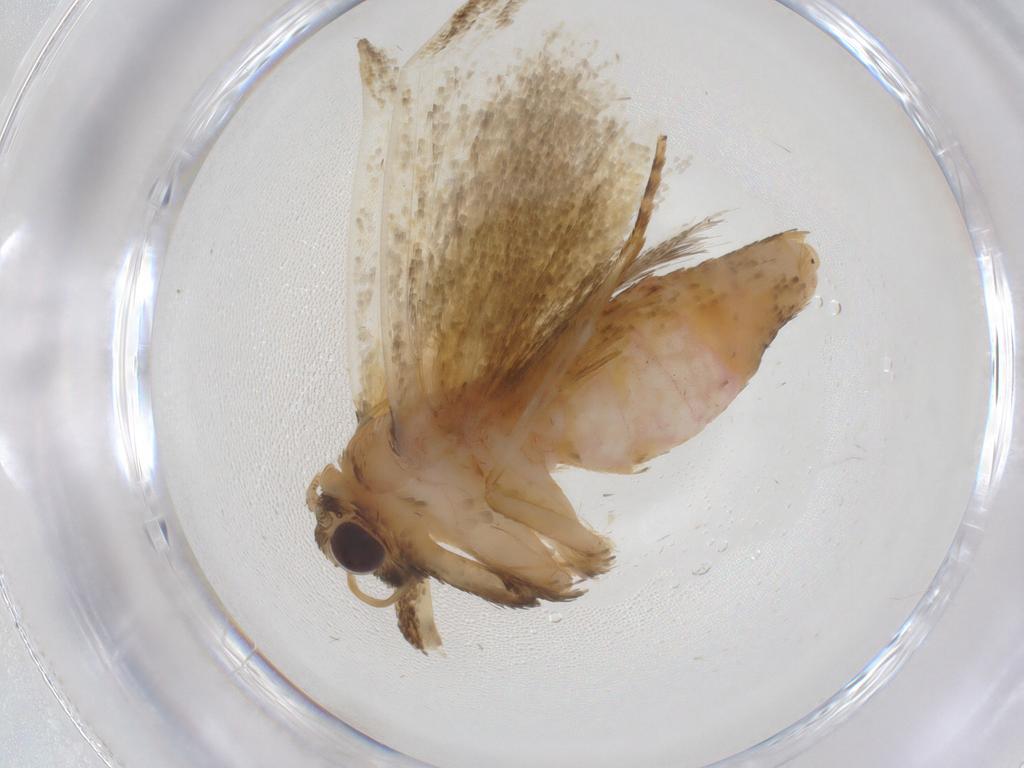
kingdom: Animalia
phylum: Arthropoda
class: Insecta
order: Lepidoptera
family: Erebidae
